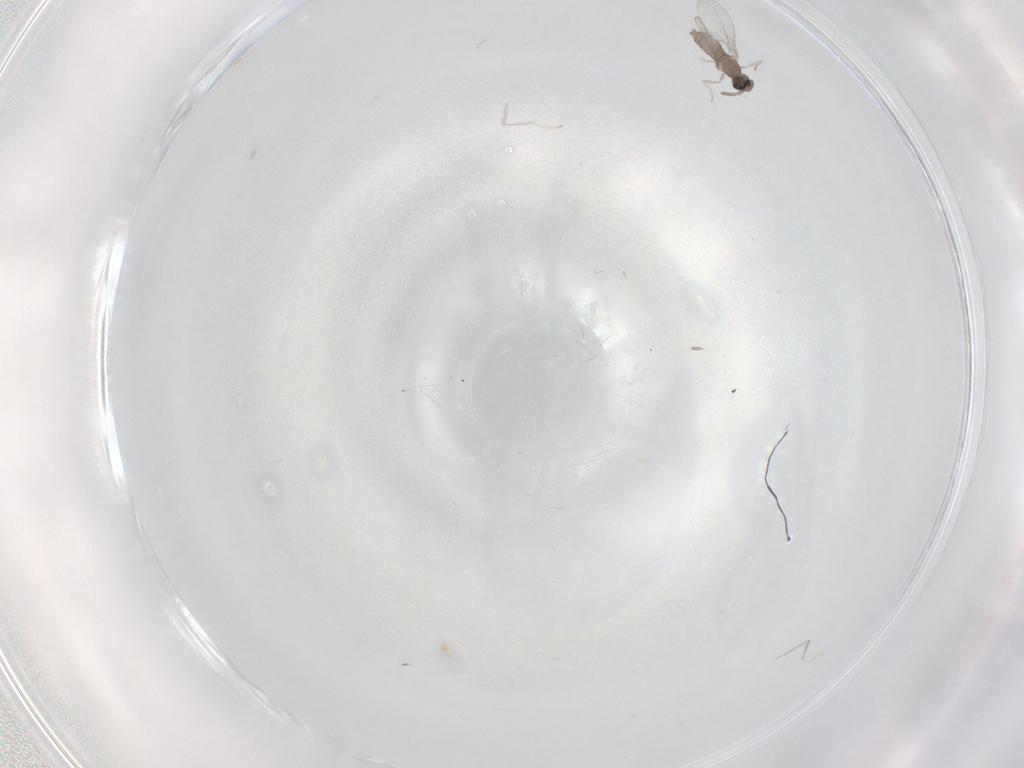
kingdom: Animalia
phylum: Arthropoda
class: Insecta
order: Diptera
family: Cecidomyiidae
